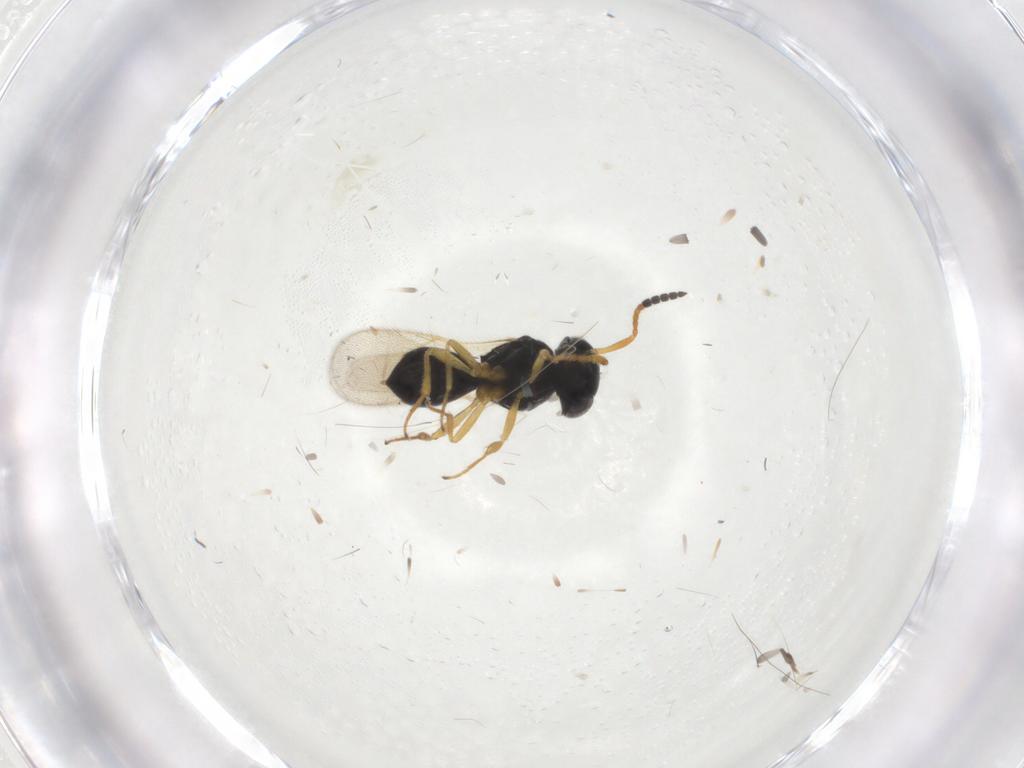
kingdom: Animalia
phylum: Arthropoda
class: Insecta
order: Hymenoptera
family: Scelionidae
